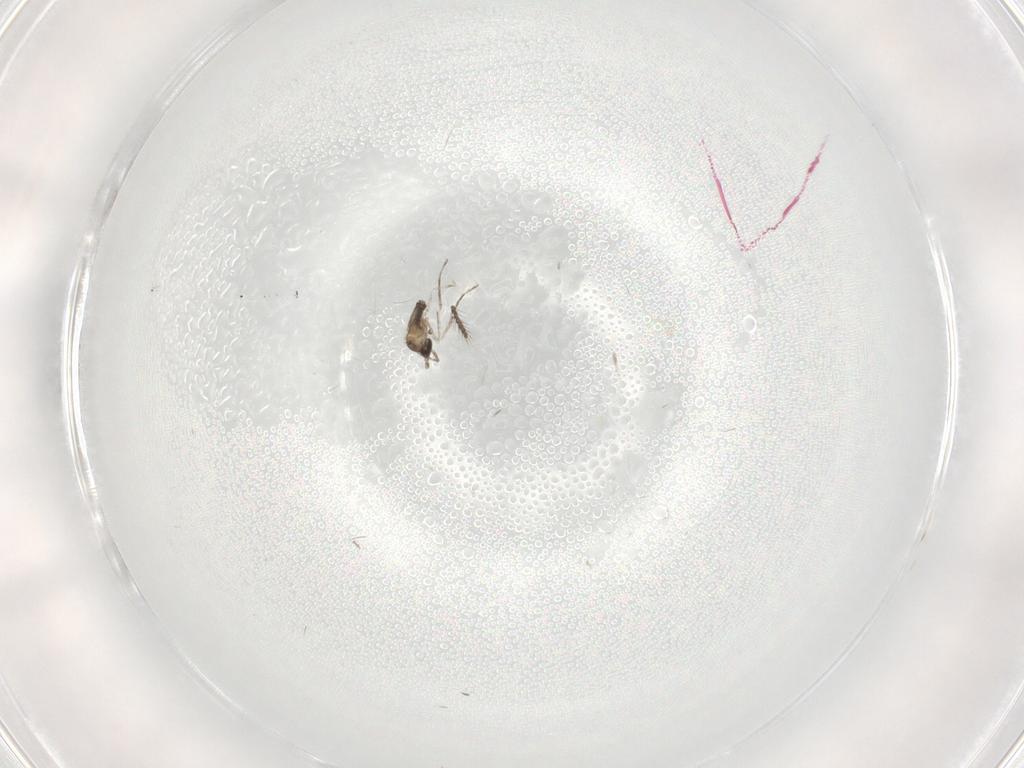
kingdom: Animalia
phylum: Arthropoda
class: Insecta
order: Diptera
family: Cecidomyiidae
